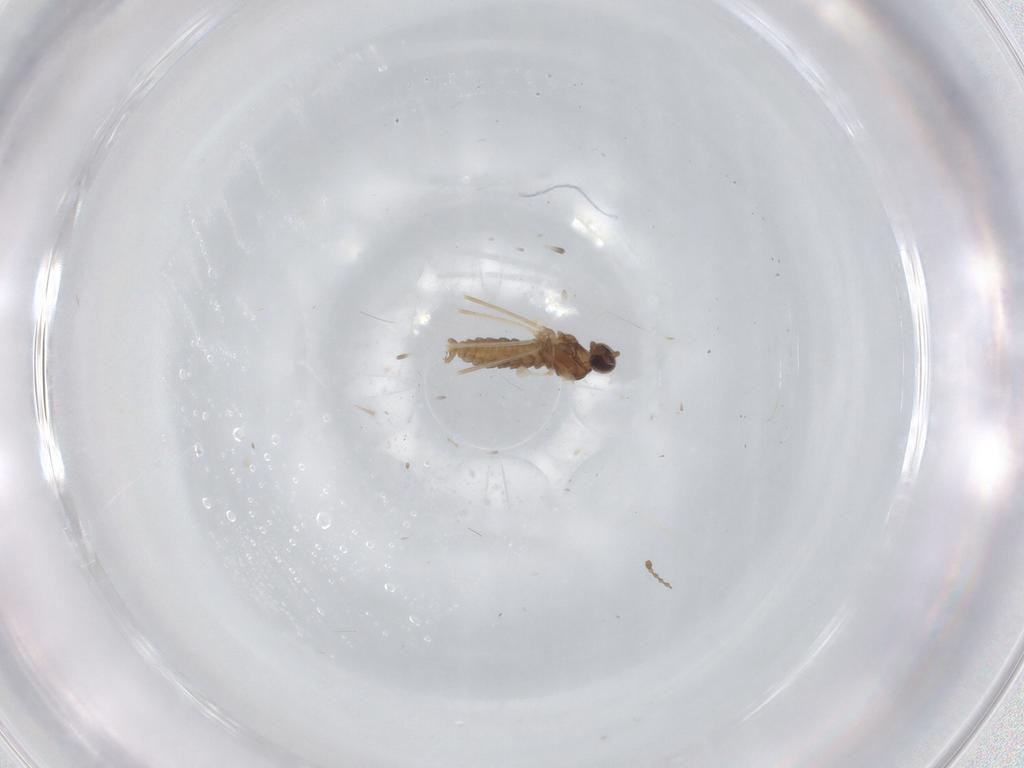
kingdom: Animalia
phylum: Arthropoda
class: Insecta
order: Diptera
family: Cecidomyiidae
